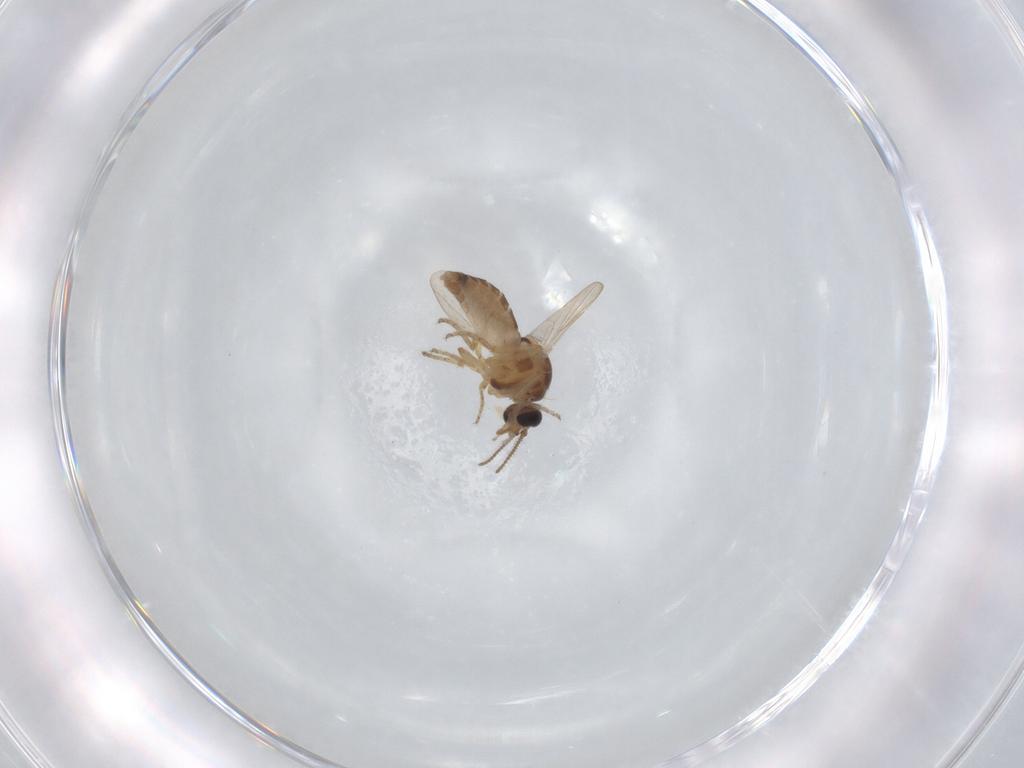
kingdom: Animalia
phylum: Arthropoda
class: Insecta
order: Diptera
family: Ceratopogonidae
